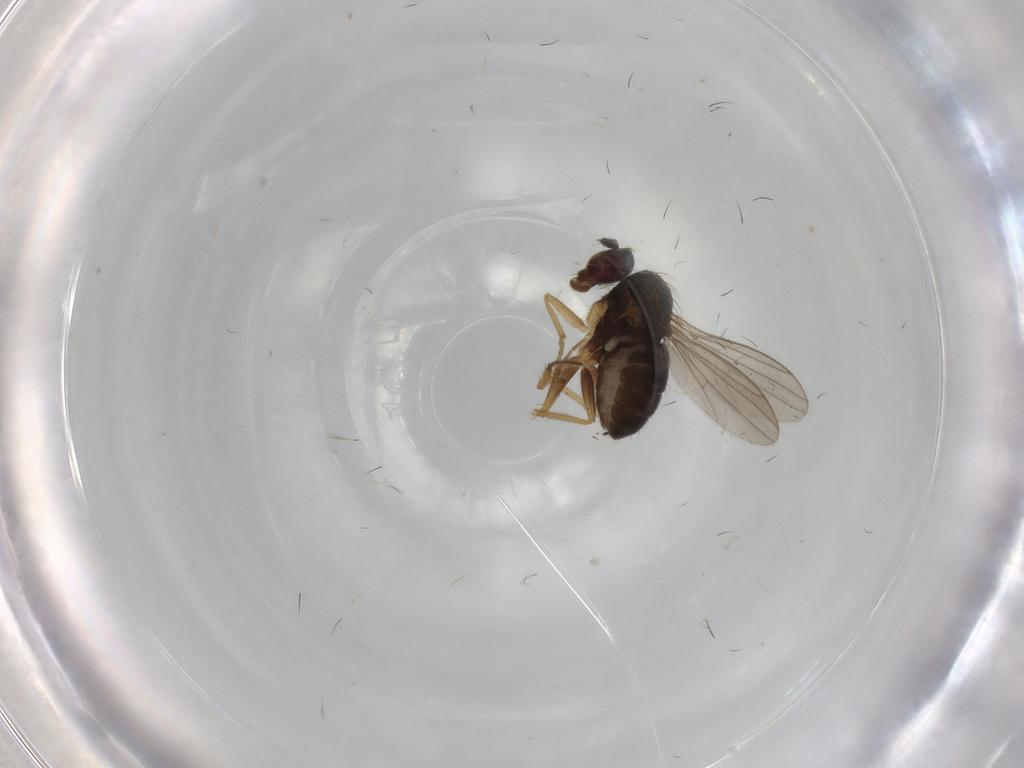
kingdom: Animalia
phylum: Arthropoda
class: Insecta
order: Diptera
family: Dolichopodidae
